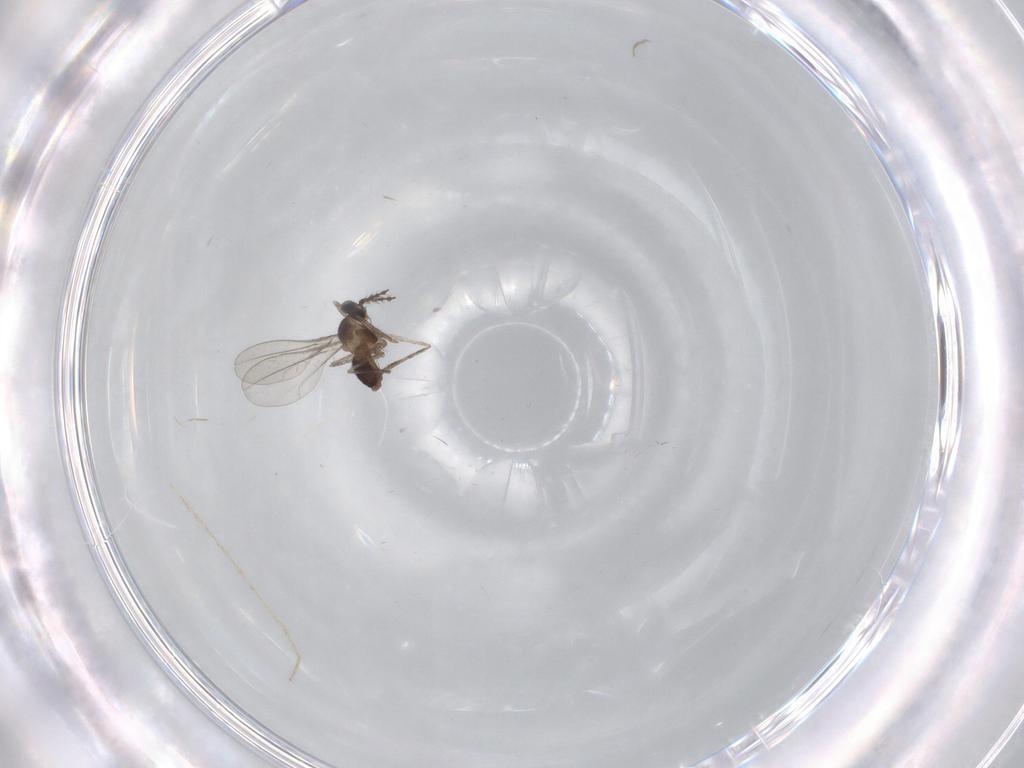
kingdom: Animalia
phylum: Arthropoda
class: Insecta
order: Diptera
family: Cecidomyiidae
